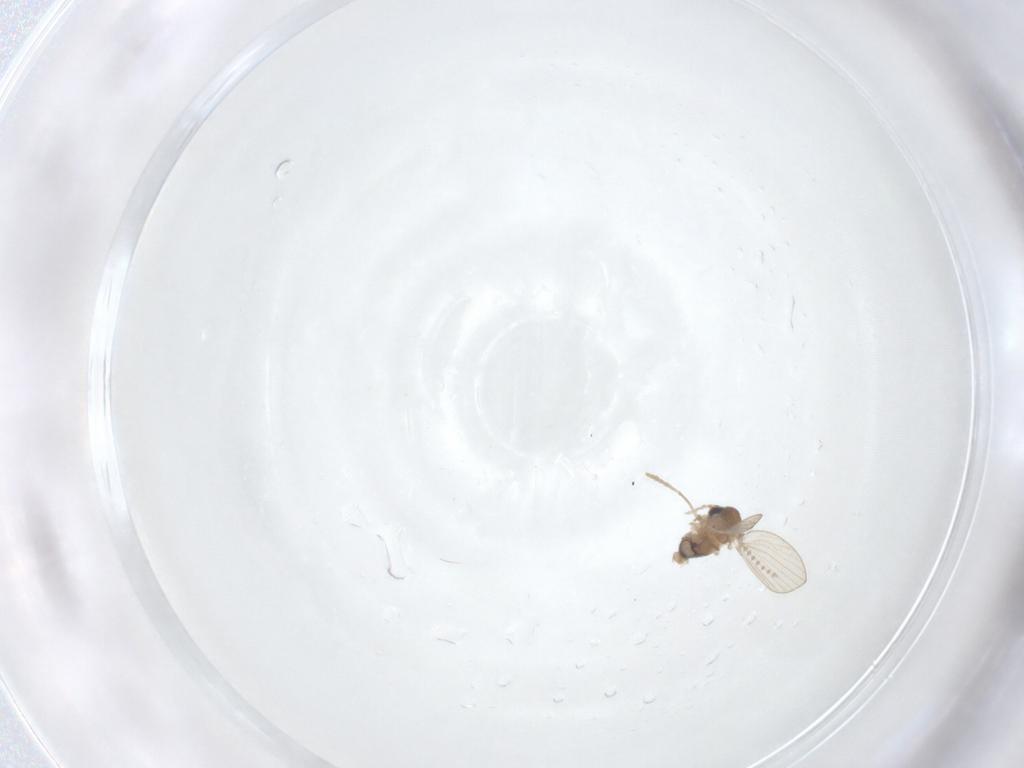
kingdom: Animalia
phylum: Arthropoda
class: Insecta
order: Diptera
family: Psychodidae
